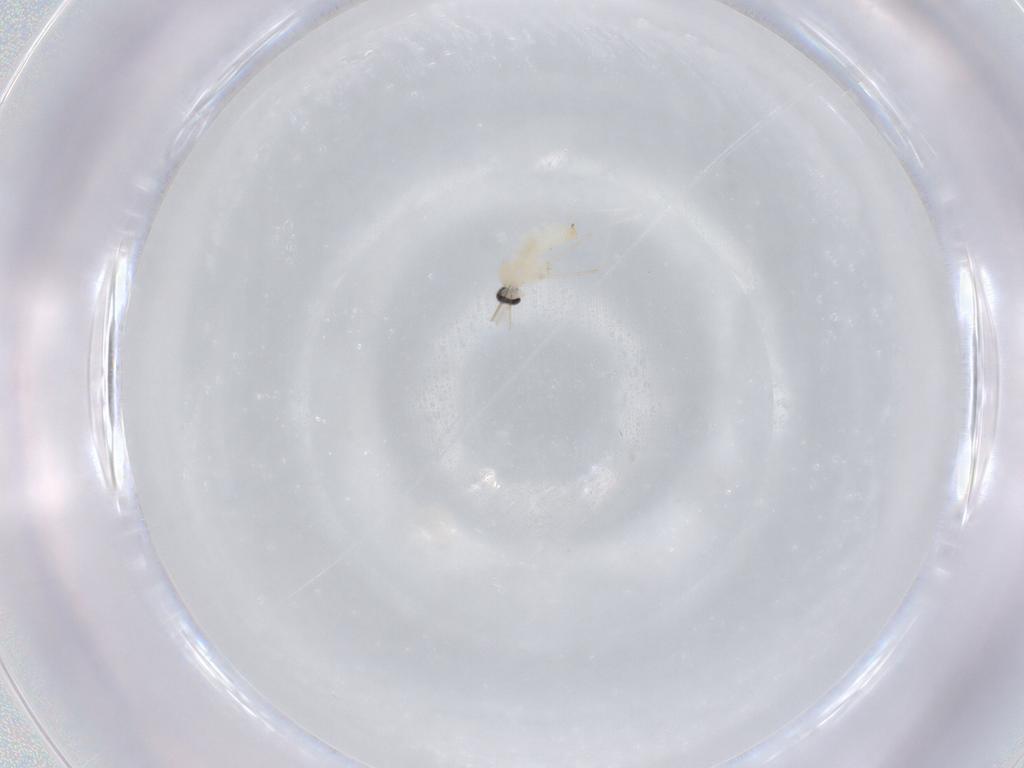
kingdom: Animalia
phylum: Arthropoda
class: Insecta
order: Diptera
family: Cecidomyiidae
